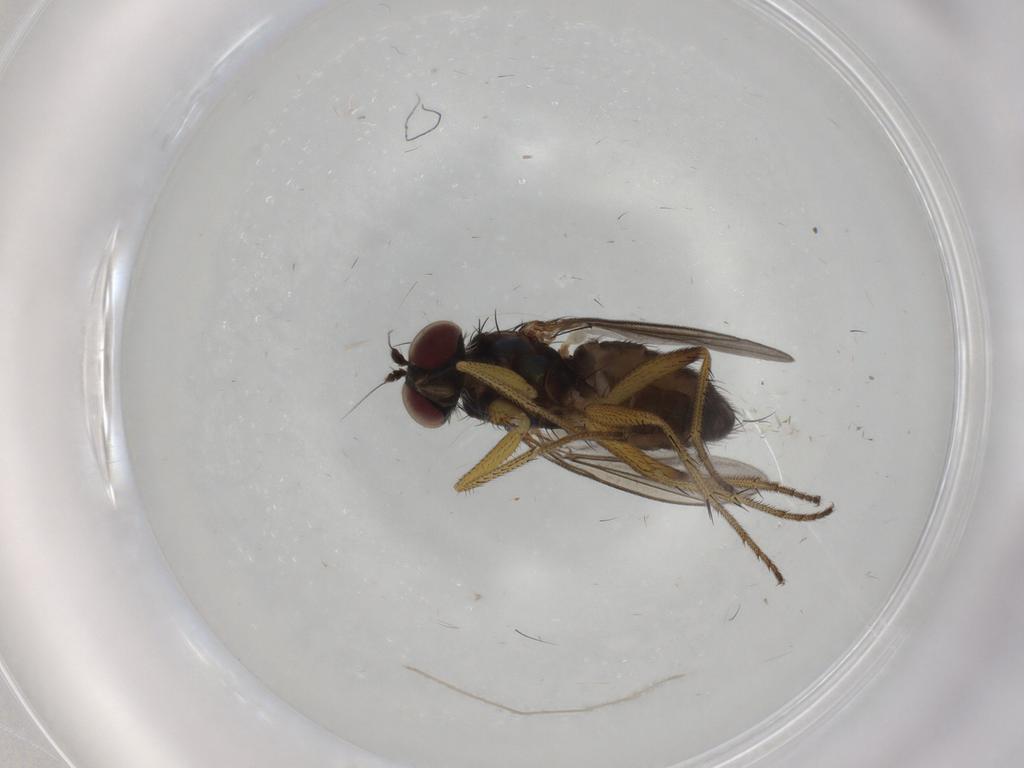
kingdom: Animalia
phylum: Arthropoda
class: Insecta
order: Diptera
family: Dolichopodidae
